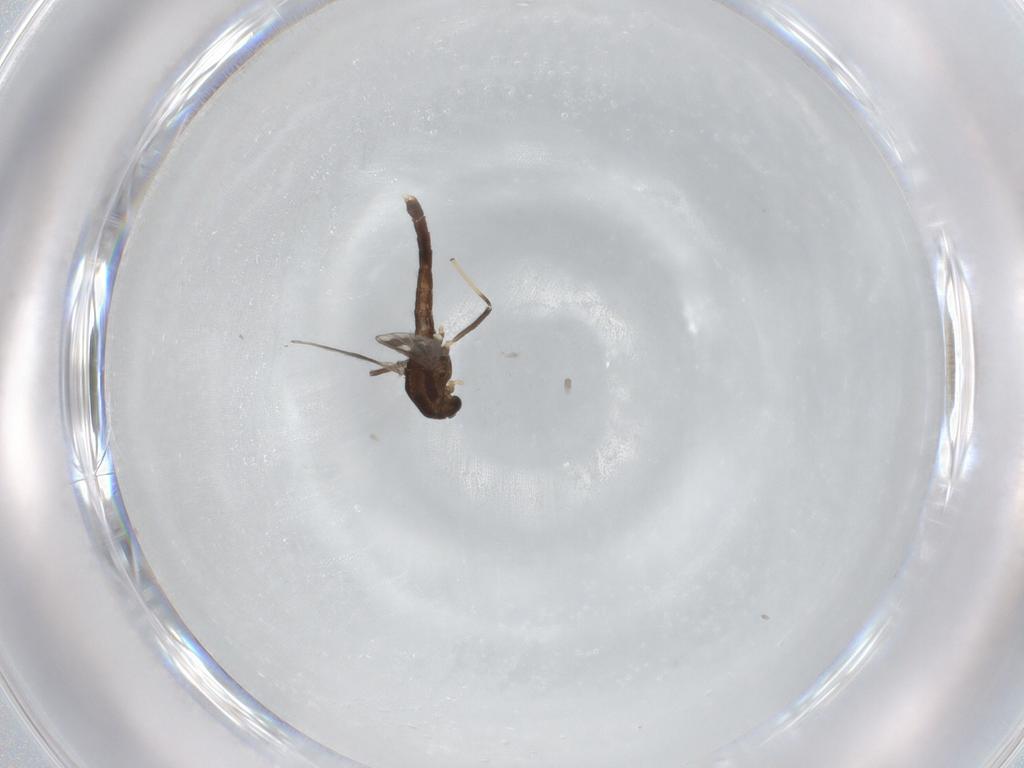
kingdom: Animalia
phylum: Arthropoda
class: Insecta
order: Diptera
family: Chironomidae
